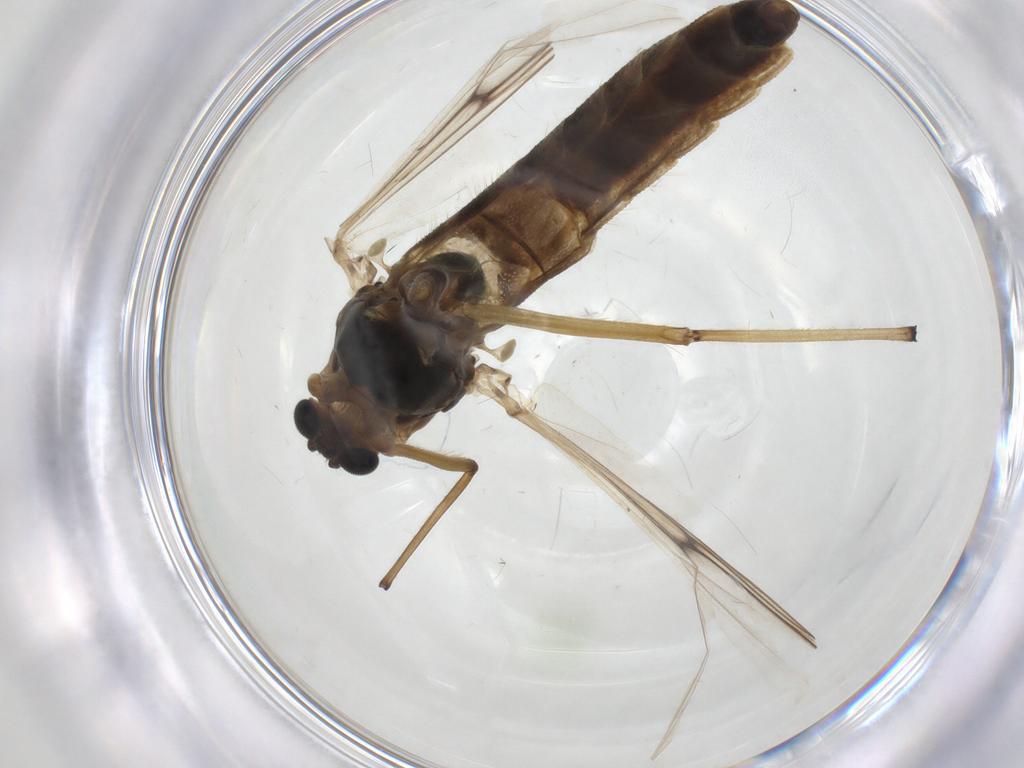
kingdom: Animalia
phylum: Arthropoda
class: Insecta
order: Diptera
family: Chironomidae
